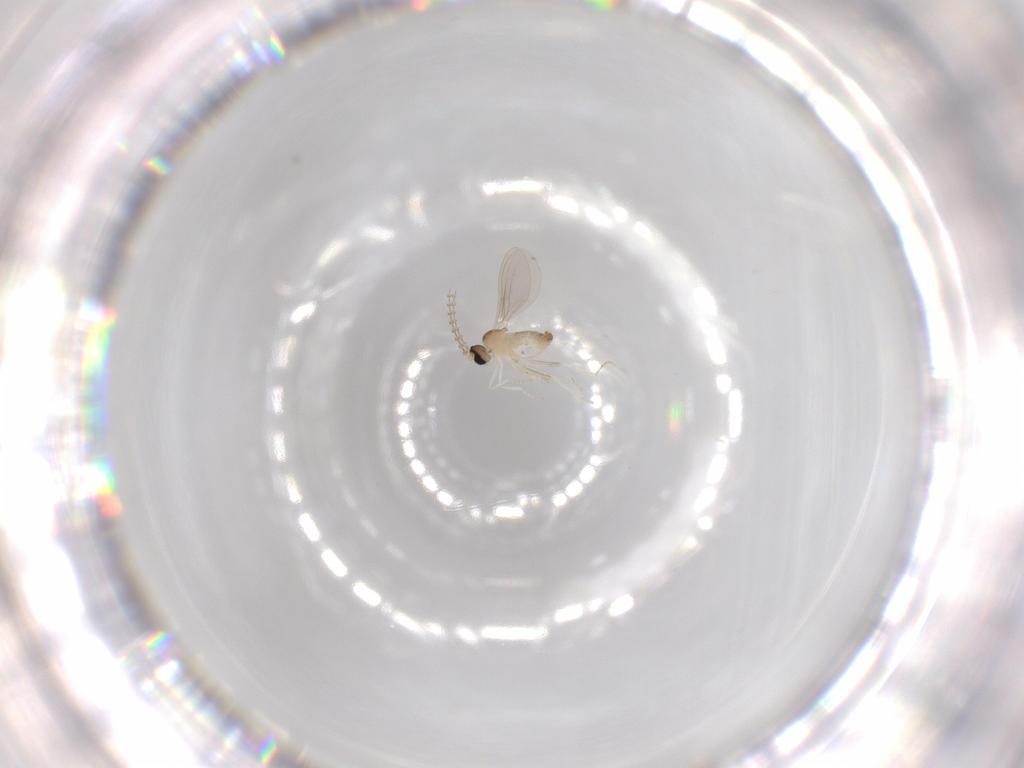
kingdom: Animalia
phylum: Arthropoda
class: Insecta
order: Diptera
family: Cecidomyiidae
